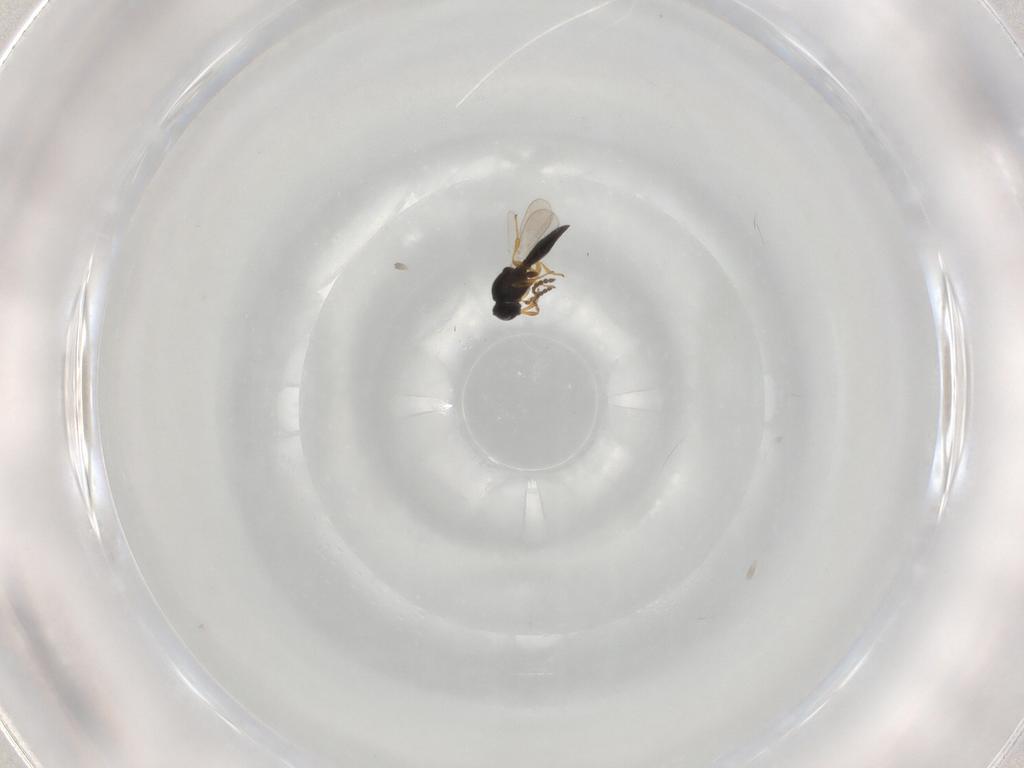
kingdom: Animalia
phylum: Arthropoda
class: Insecta
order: Hymenoptera
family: Platygastridae
